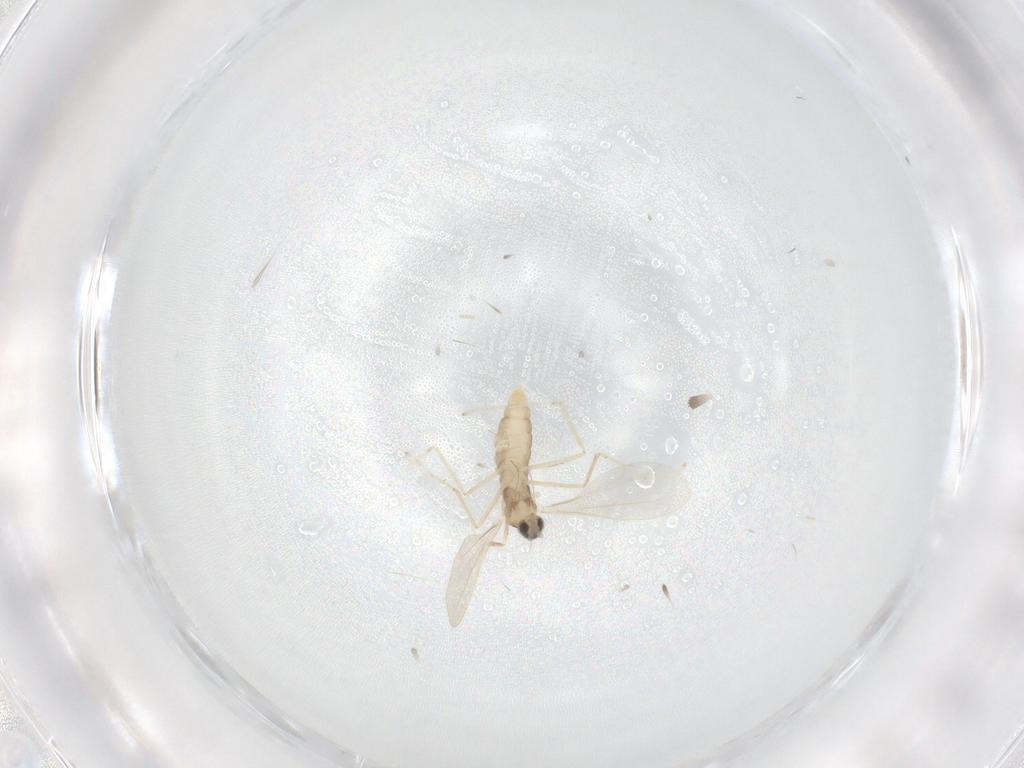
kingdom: Animalia
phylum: Arthropoda
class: Insecta
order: Diptera
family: Cecidomyiidae
